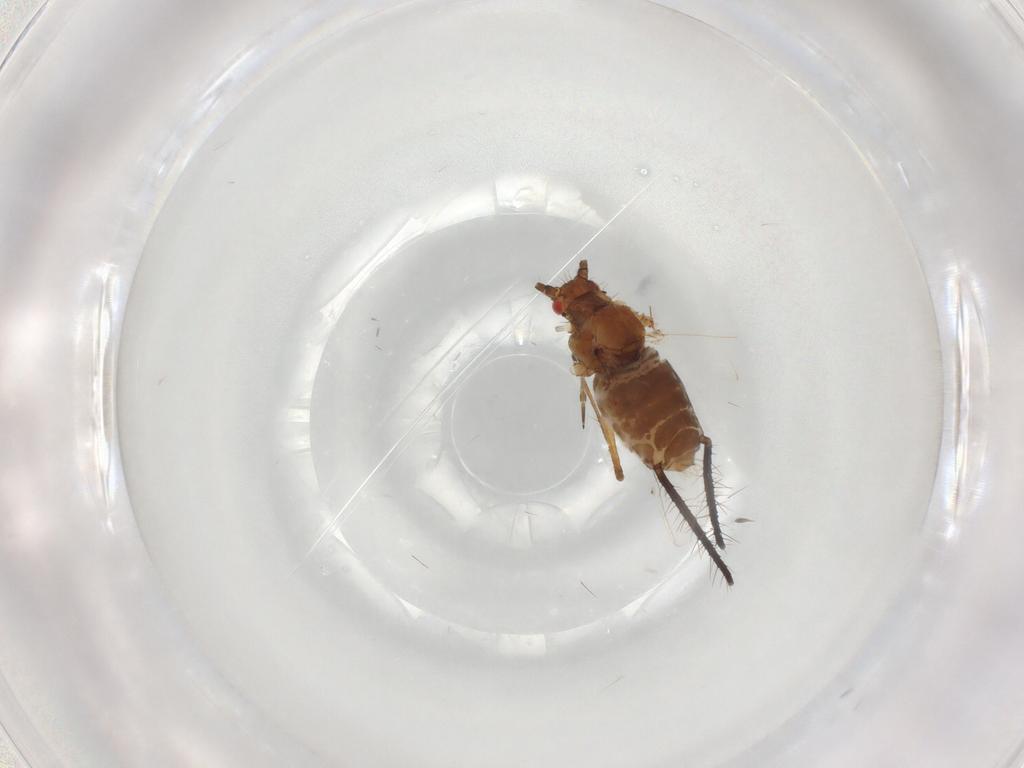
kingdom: Animalia
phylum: Arthropoda
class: Insecta
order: Hemiptera
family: Aphididae
